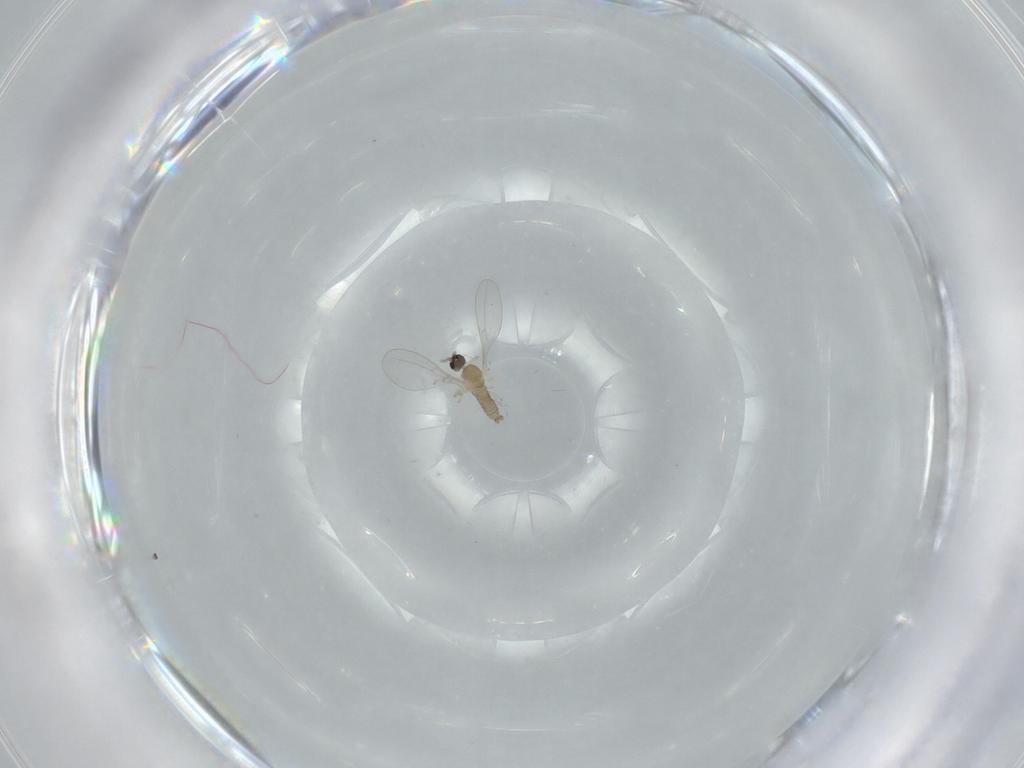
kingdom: Animalia
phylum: Arthropoda
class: Insecta
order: Diptera
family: Cecidomyiidae
